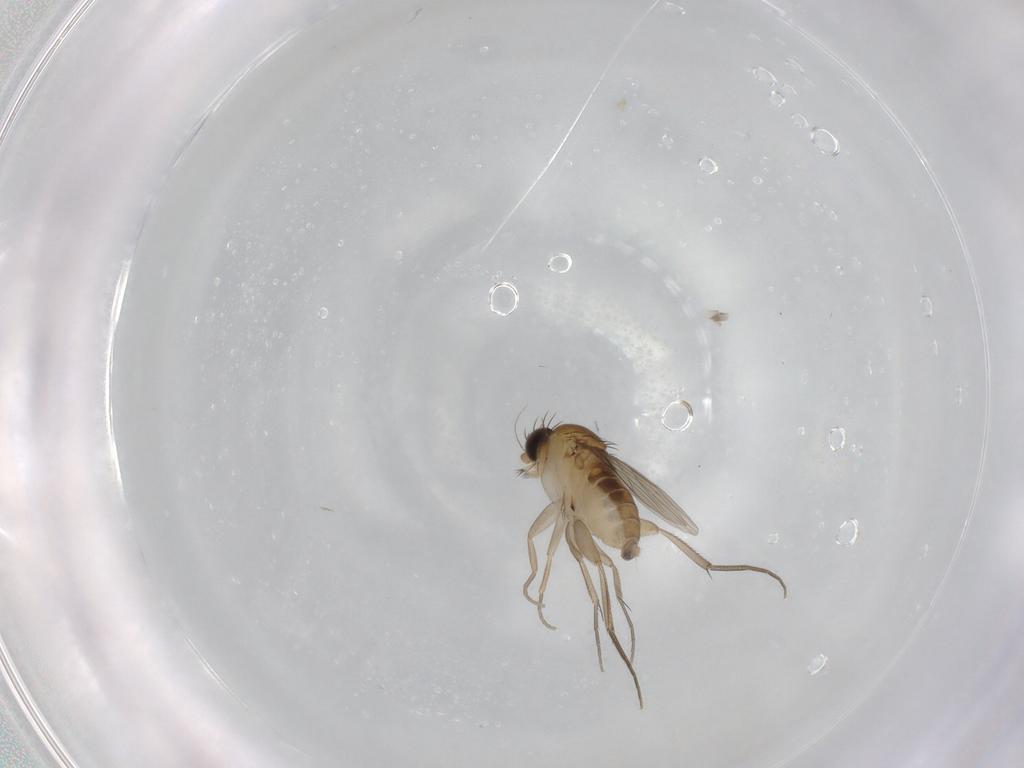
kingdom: Animalia
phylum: Arthropoda
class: Insecta
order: Diptera
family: Phoridae
